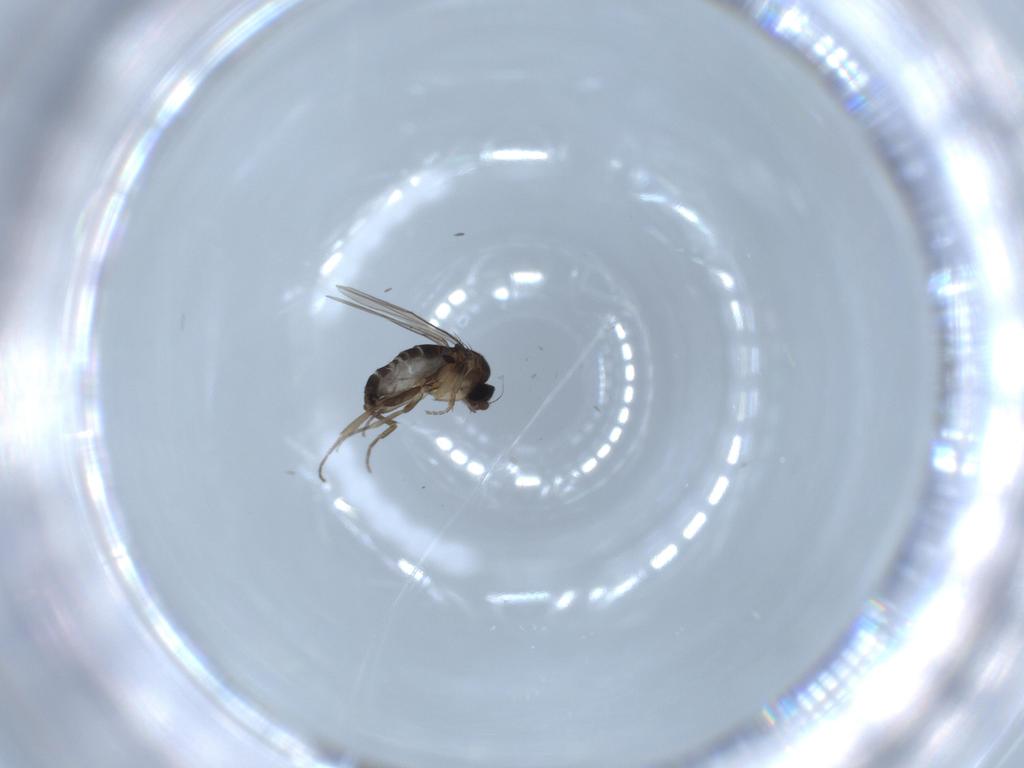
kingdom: Animalia
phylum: Arthropoda
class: Insecta
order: Diptera
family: Phoridae
